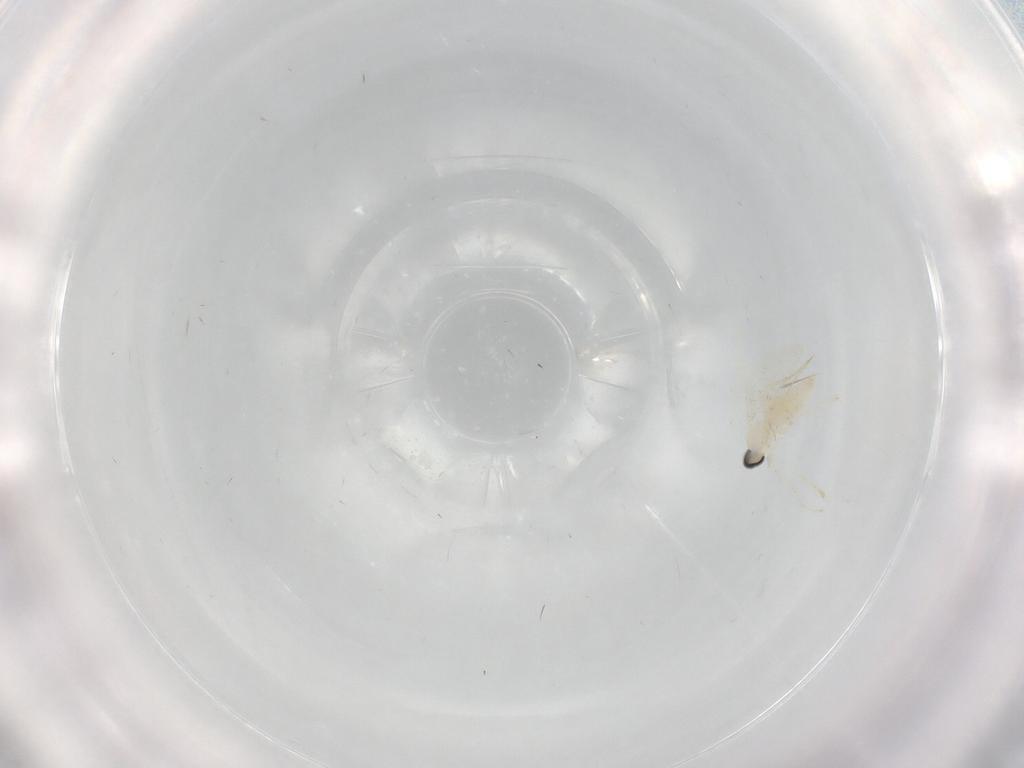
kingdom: Animalia
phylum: Arthropoda
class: Insecta
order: Diptera
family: Cecidomyiidae
